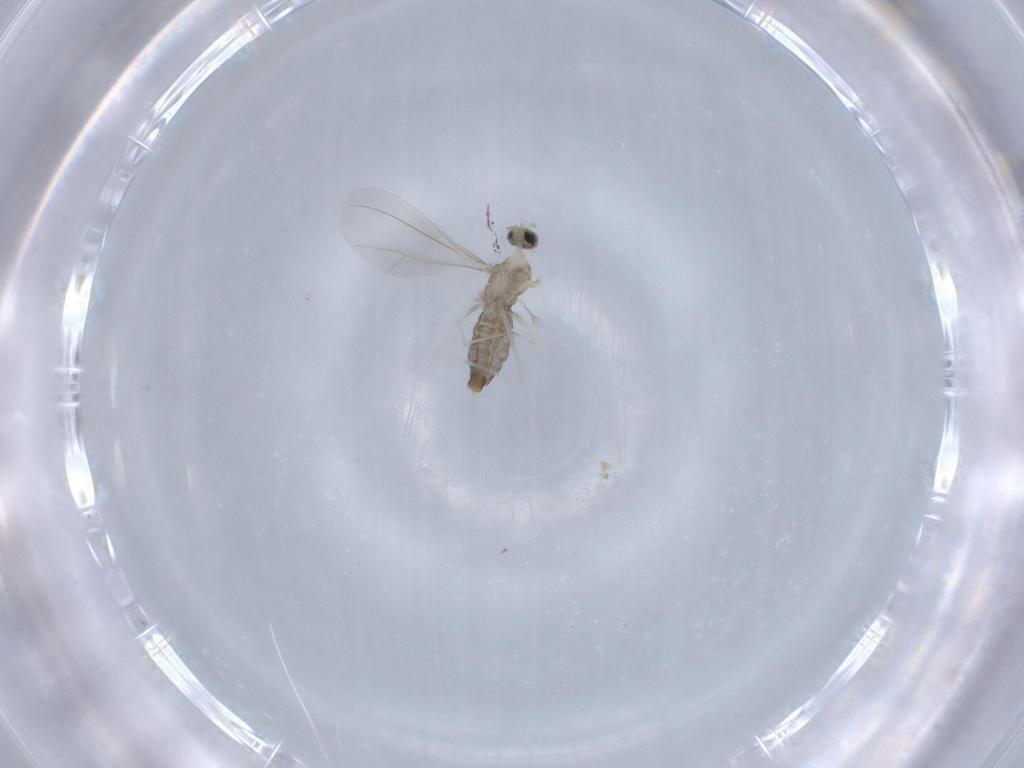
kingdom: Animalia
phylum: Arthropoda
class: Insecta
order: Diptera
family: Cecidomyiidae
